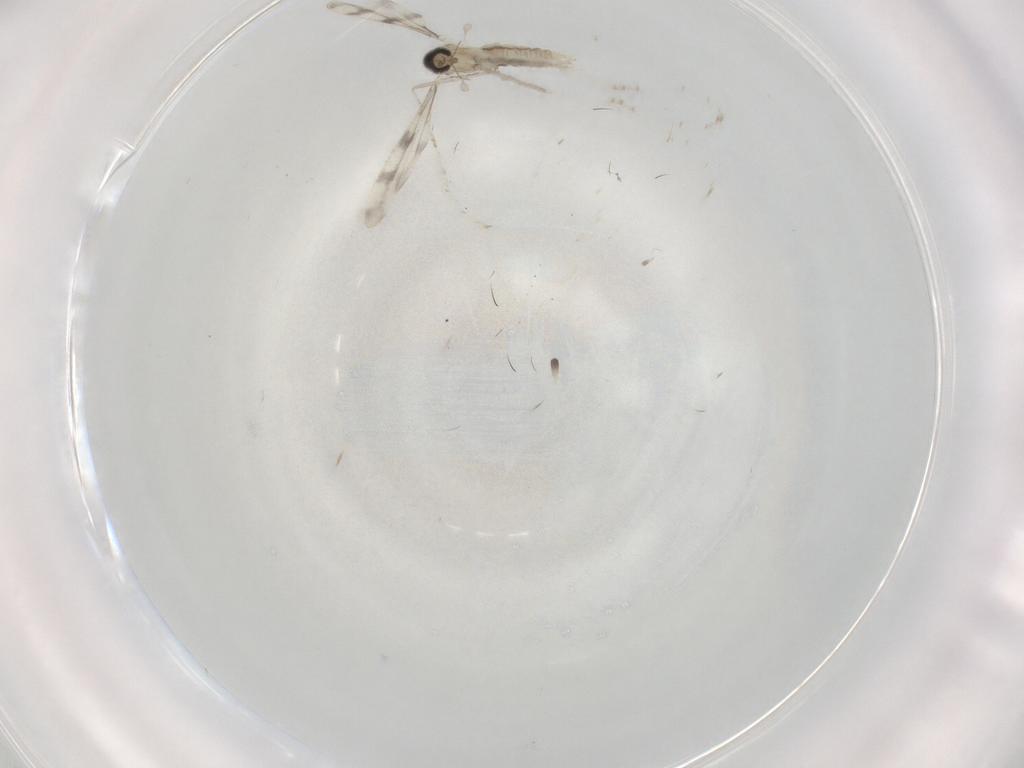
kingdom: Animalia
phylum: Arthropoda
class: Insecta
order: Diptera
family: Cecidomyiidae
